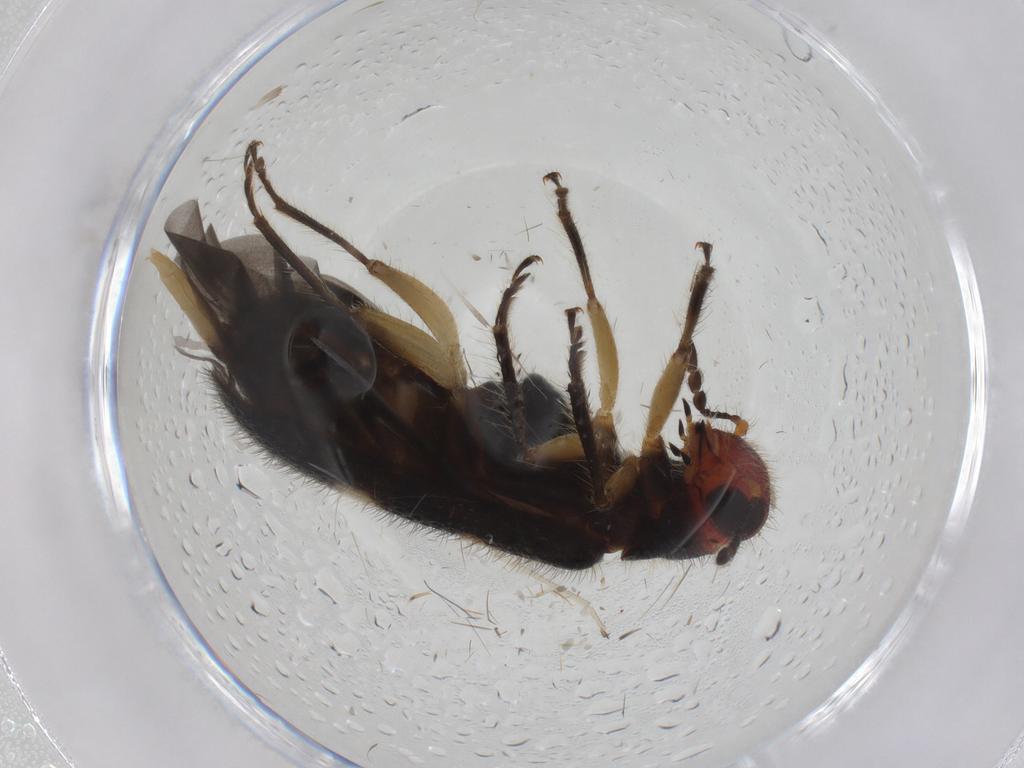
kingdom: Animalia
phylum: Arthropoda
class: Insecta
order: Coleoptera
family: Cleridae
